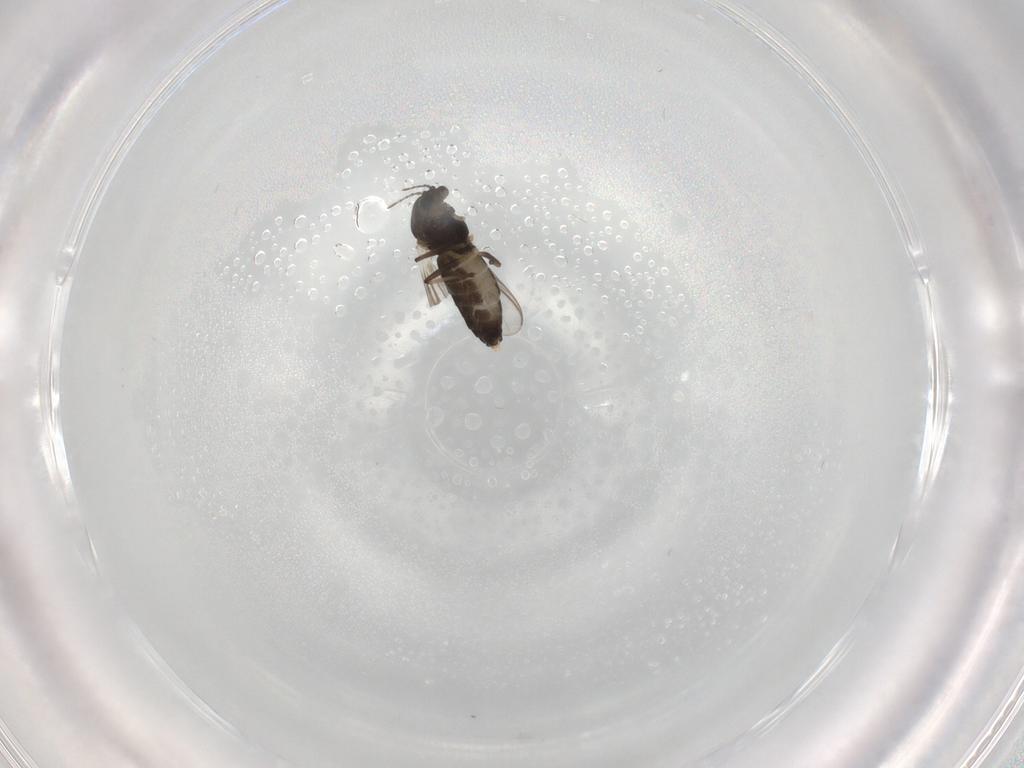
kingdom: Animalia
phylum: Arthropoda
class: Insecta
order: Diptera
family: Chironomidae
